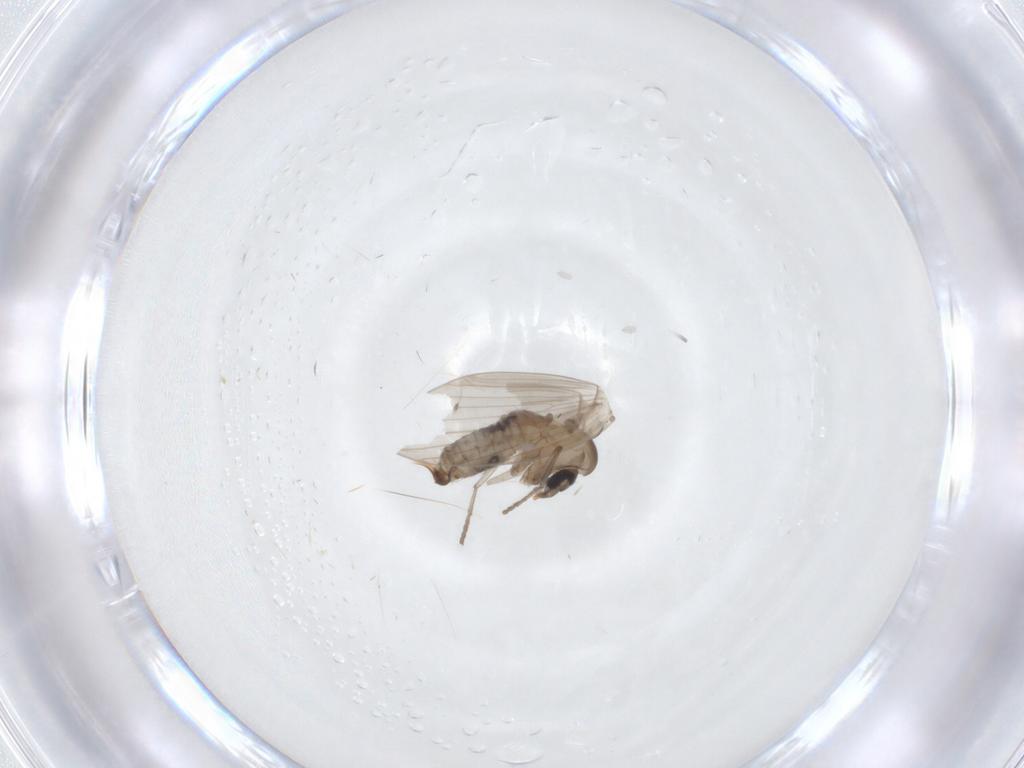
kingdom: Animalia
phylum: Arthropoda
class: Insecta
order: Diptera
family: Psychodidae
